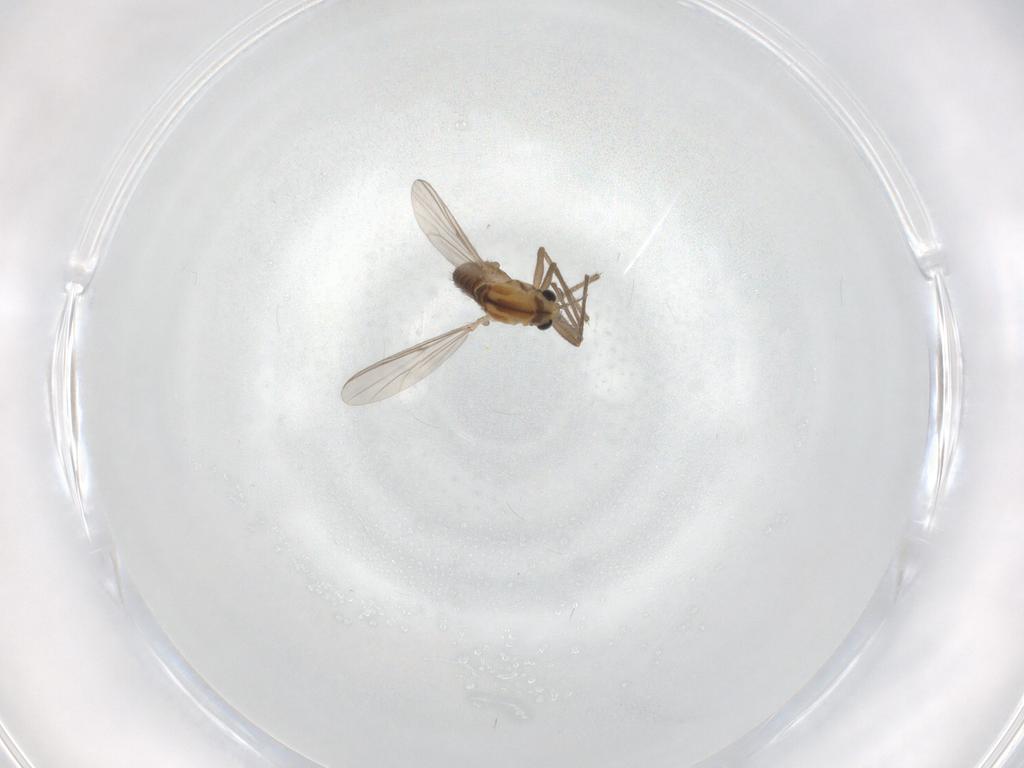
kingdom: Animalia
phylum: Arthropoda
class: Insecta
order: Diptera
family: Chironomidae
